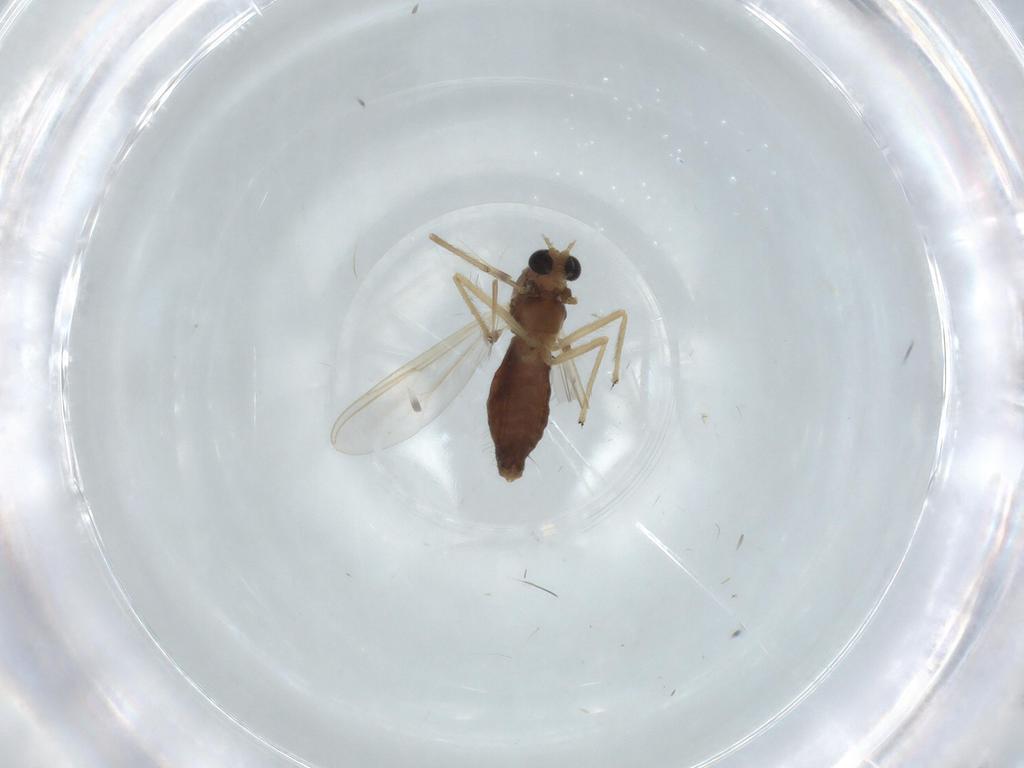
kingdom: Animalia
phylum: Arthropoda
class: Insecta
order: Diptera
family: Chironomidae
